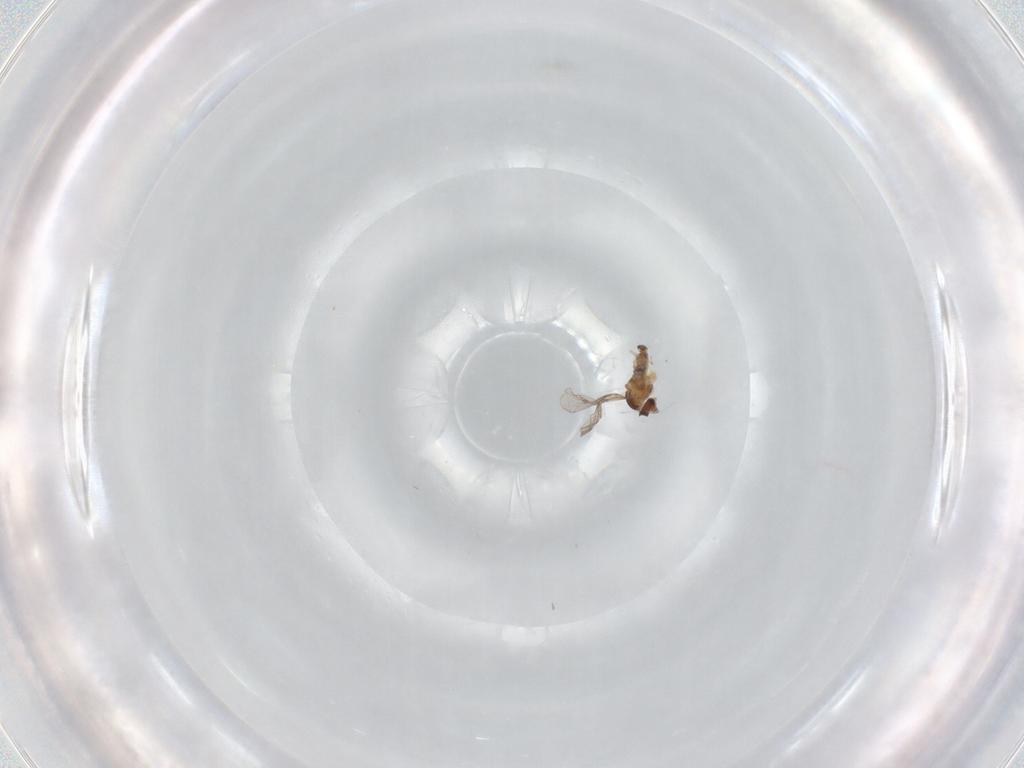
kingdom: Animalia
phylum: Arthropoda
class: Insecta
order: Diptera
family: Cecidomyiidae
